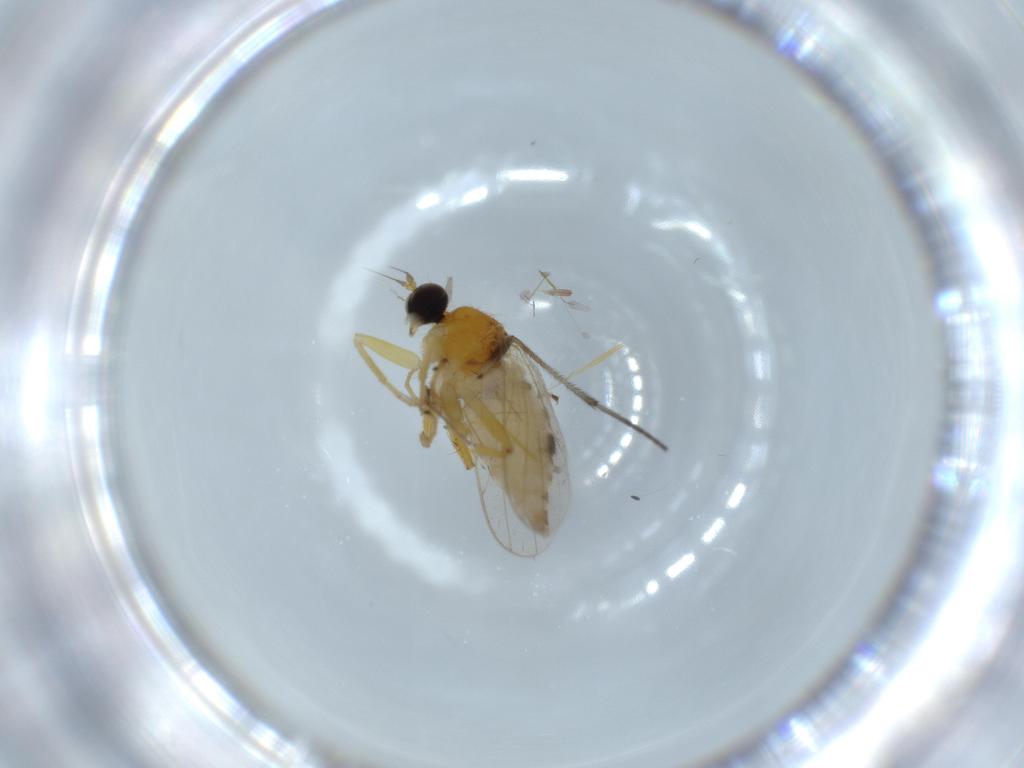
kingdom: Animalia
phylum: Arthropoda
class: Insecta
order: Diptera
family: Hybotidae
